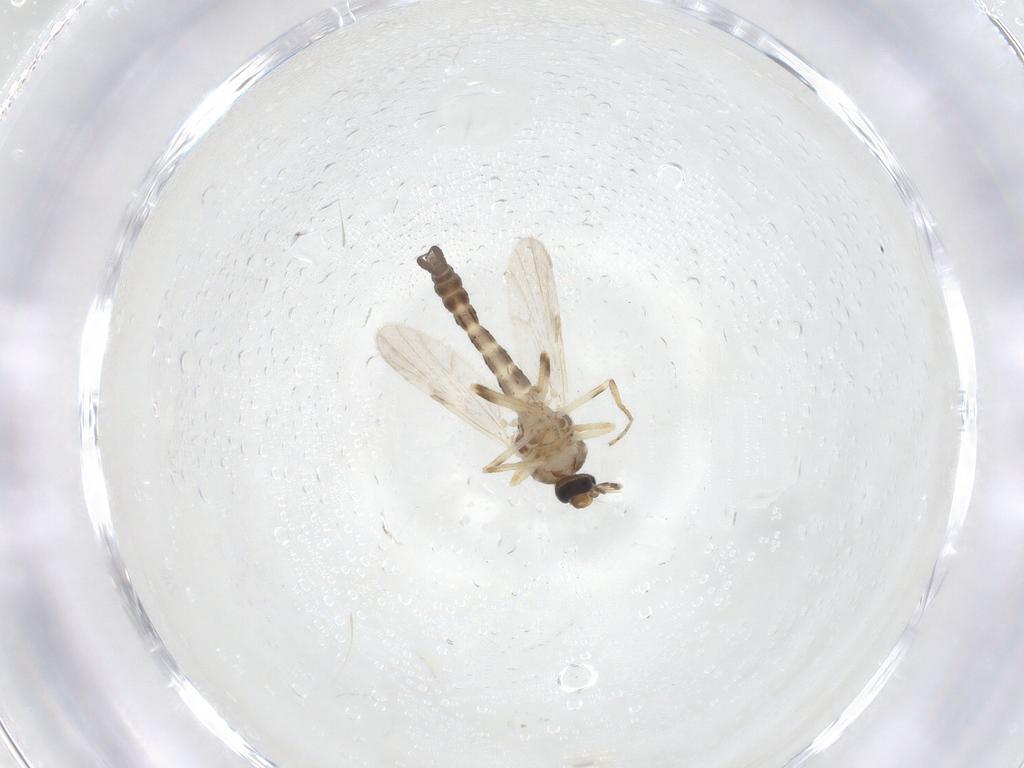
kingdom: Animalia
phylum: Arthropoda
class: Insecta
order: Diptera
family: Ceratopogonidae
